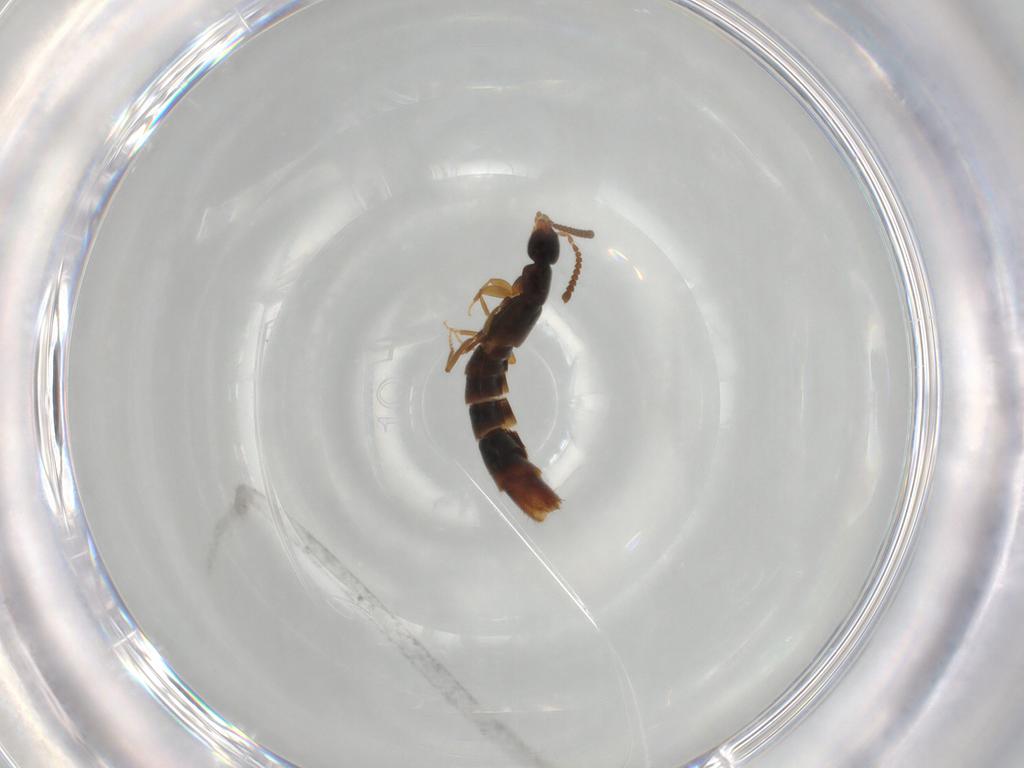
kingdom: Animalia
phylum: Arthropoda
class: Insecta
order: Coleoptera
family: Staphylinidae
